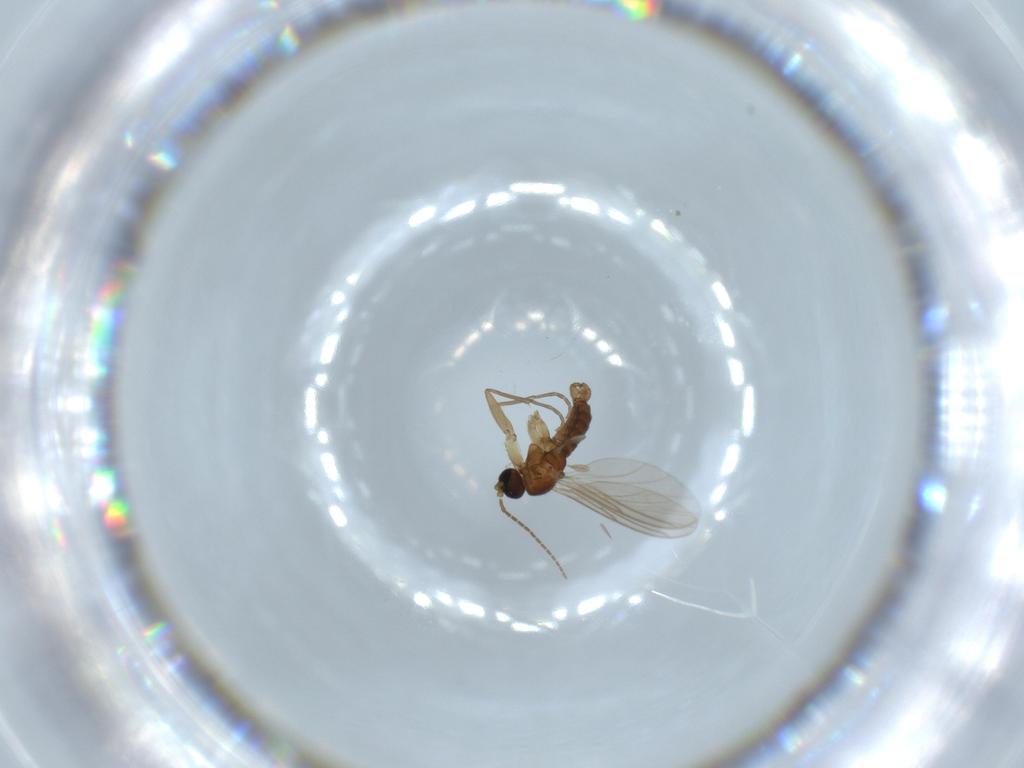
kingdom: Animalia
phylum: Arthropoda
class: Insecta
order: Diptera
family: Sciaridae
